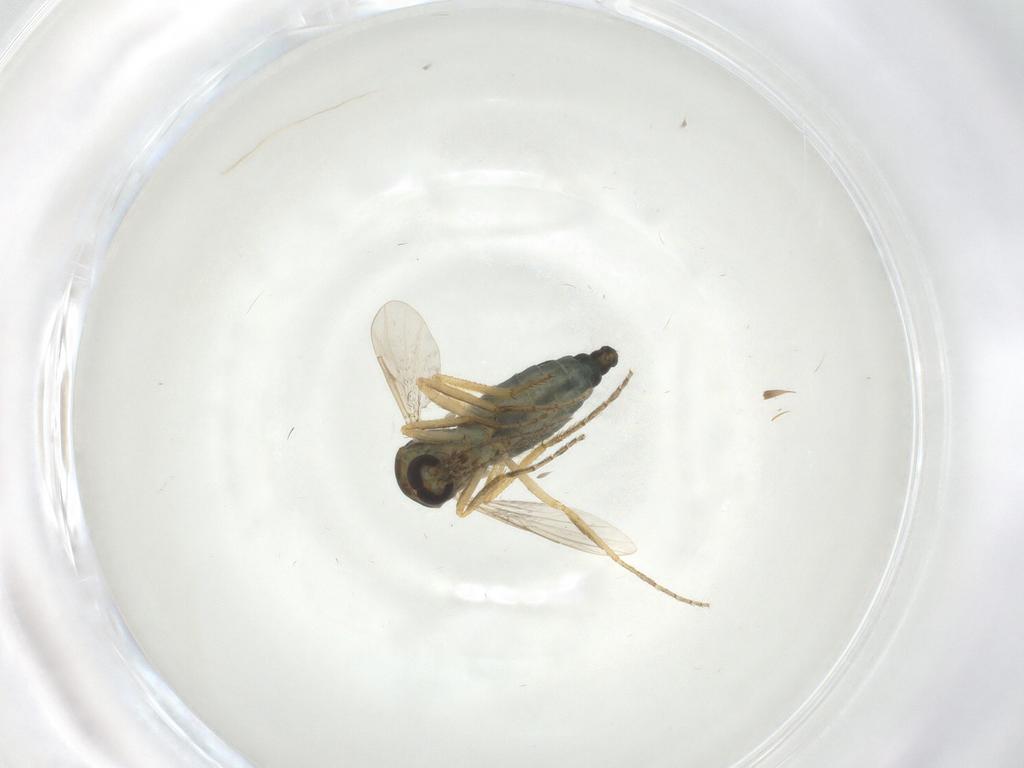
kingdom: Animalia
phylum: Arthropoda
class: Insecta
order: Diptera
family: Ceratopogonidae
